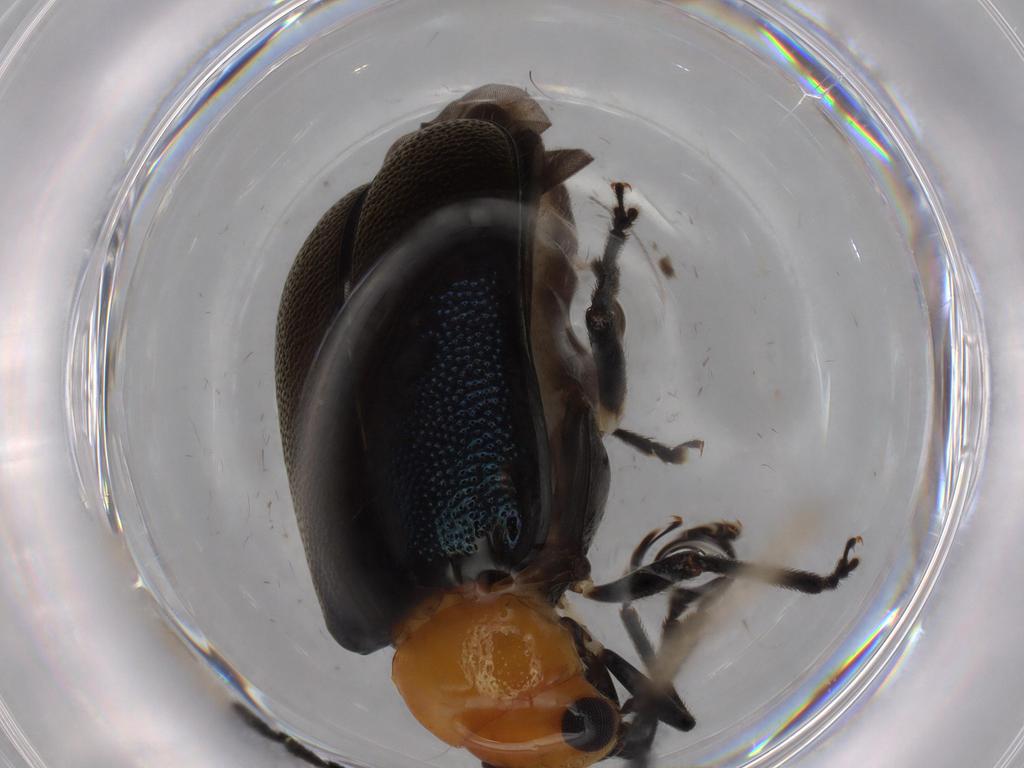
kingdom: Animalia
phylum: Arthropoda
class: Insecta
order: Coleoptera
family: Chrysomelidae
